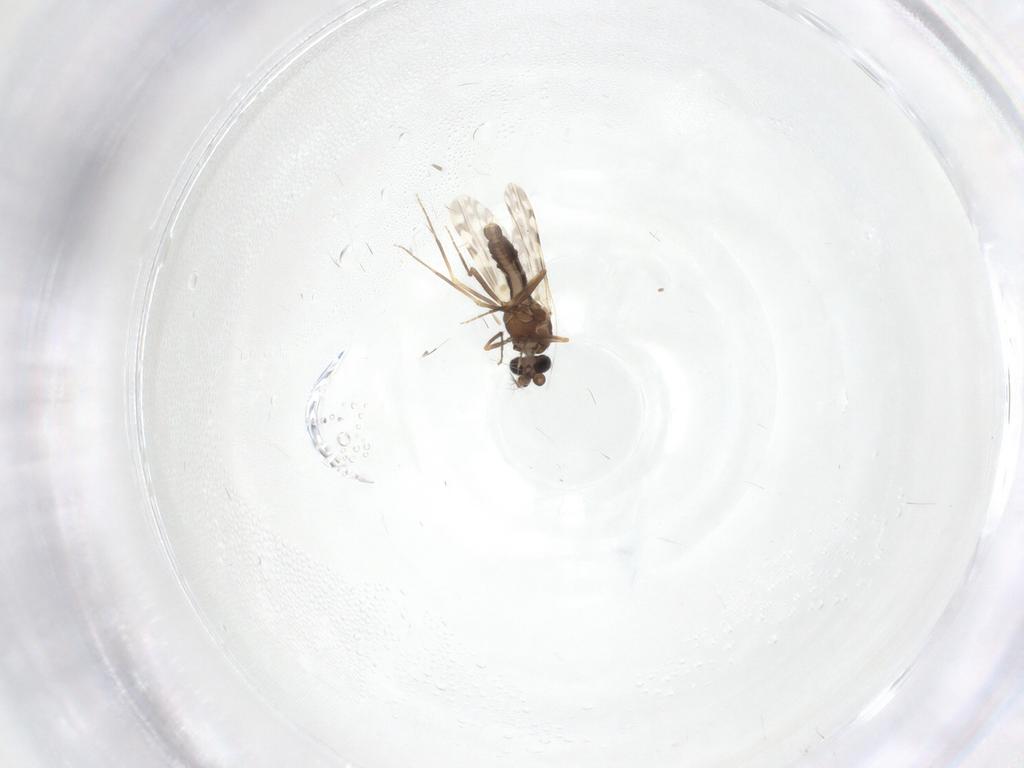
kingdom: Animalia
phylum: Arthropoda
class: Insecta
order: Diptera
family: Ceratopogonidae
